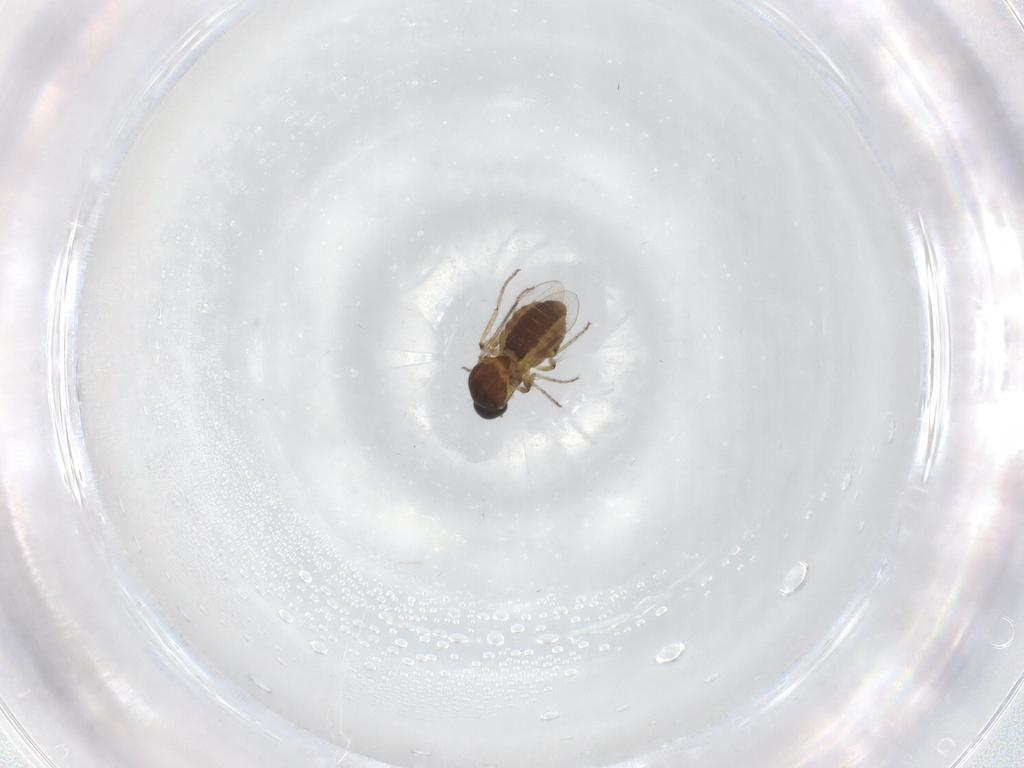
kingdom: Animalia
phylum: Arthropoda
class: Insecta
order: Diptera
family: Ceratopogonidae
